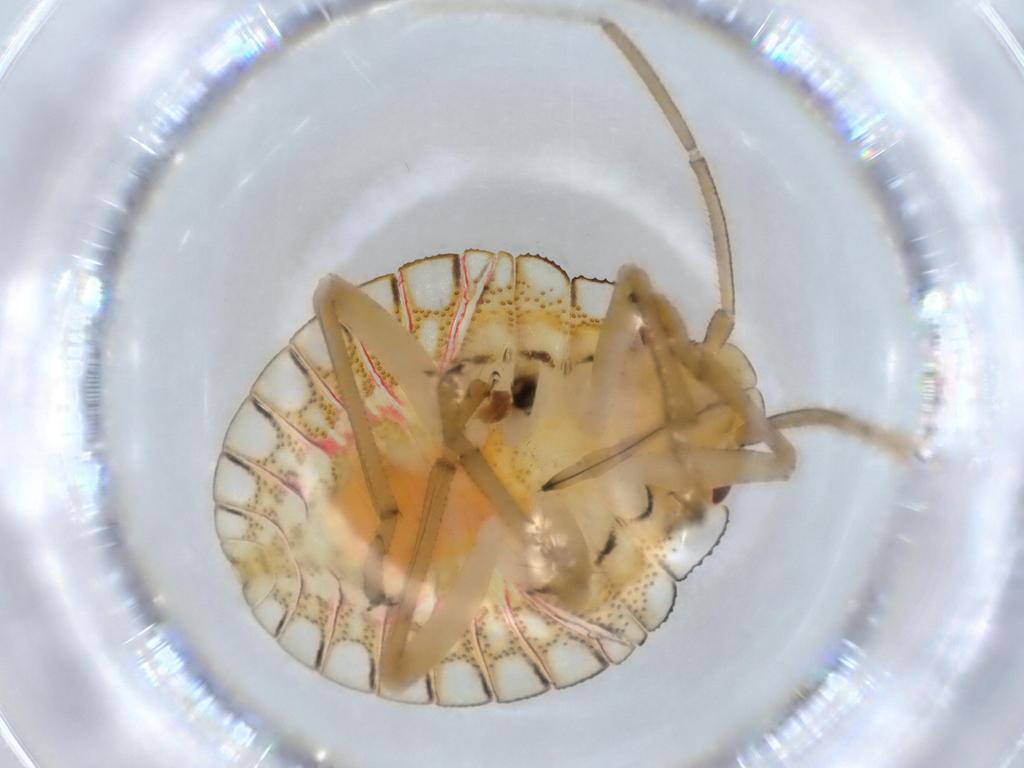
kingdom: Animalia
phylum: Arthropoda
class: Insecta
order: Hemiptera
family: Pentatomidae
